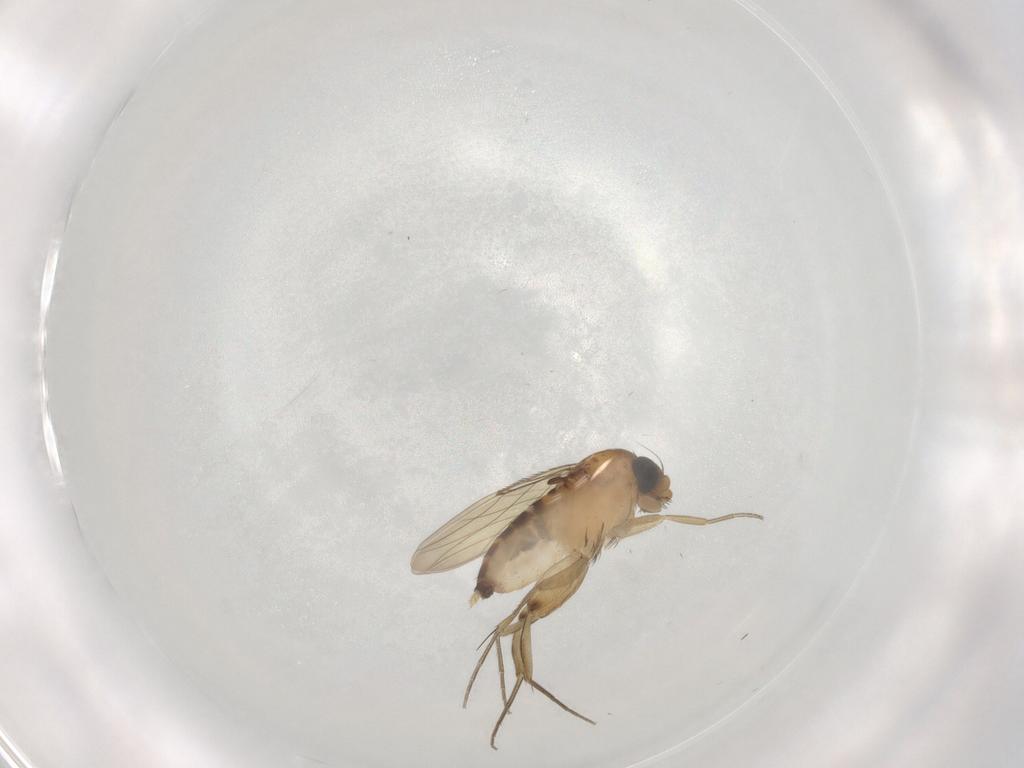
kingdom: Animalia
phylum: Arthropoda
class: Insecta
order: Diptera
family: Phoridae
